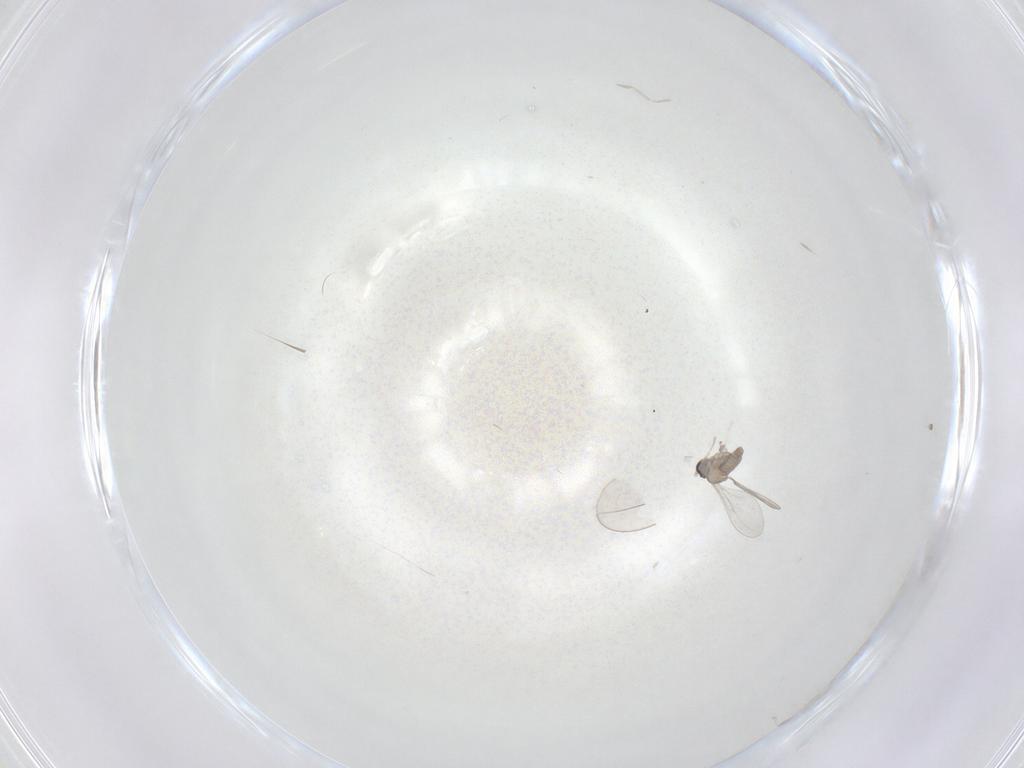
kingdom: Animalia
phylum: Arthropoda
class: Insecta
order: Diptera
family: Cecidomyiidae
